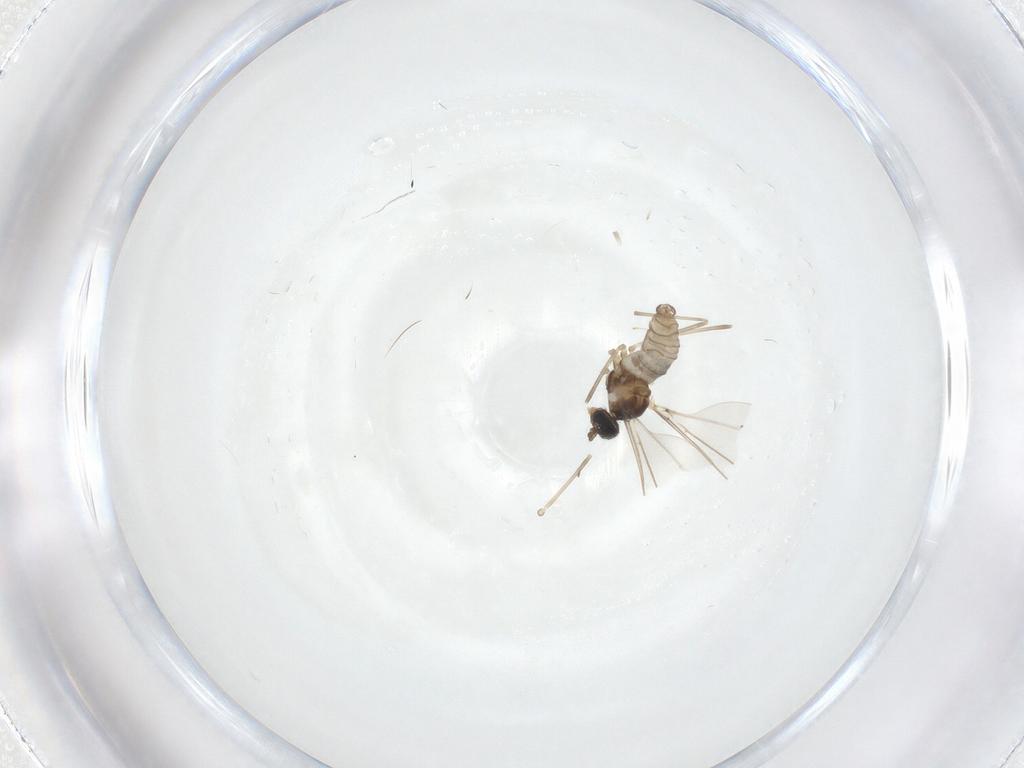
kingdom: Animalia
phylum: Arthropoda
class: Insecta
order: Diptera
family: Cecidomyiidae
